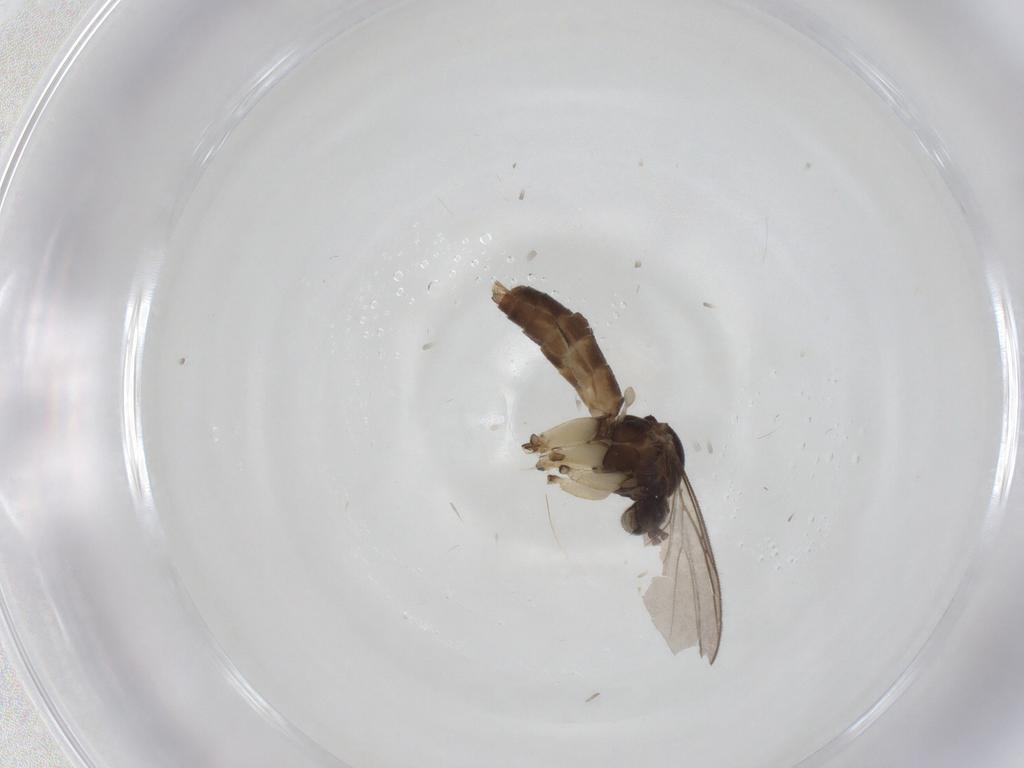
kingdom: Animalia
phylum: Arthropoda
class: Insecta
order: Diptera
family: Stratiomyidae
